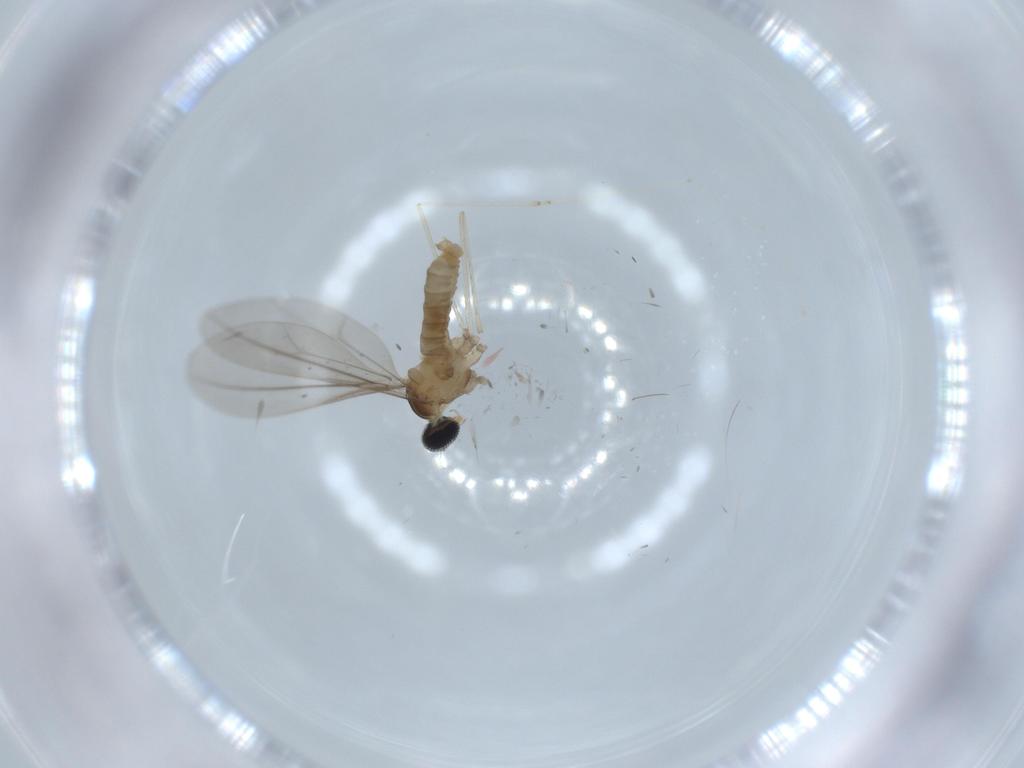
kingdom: Animalia
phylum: Arthropoda
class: Insecta
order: Diptera
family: Cecidomyiidae
